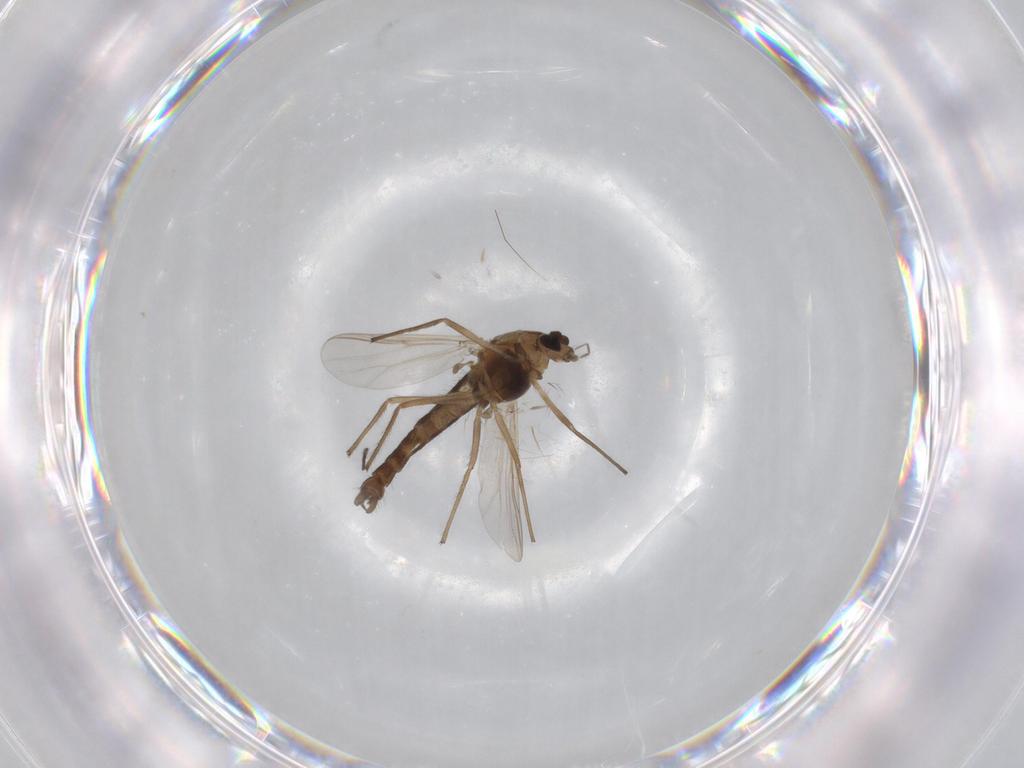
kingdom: Animalia
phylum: Arthropoda
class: Insecta
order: Diptera
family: Chironomidae
